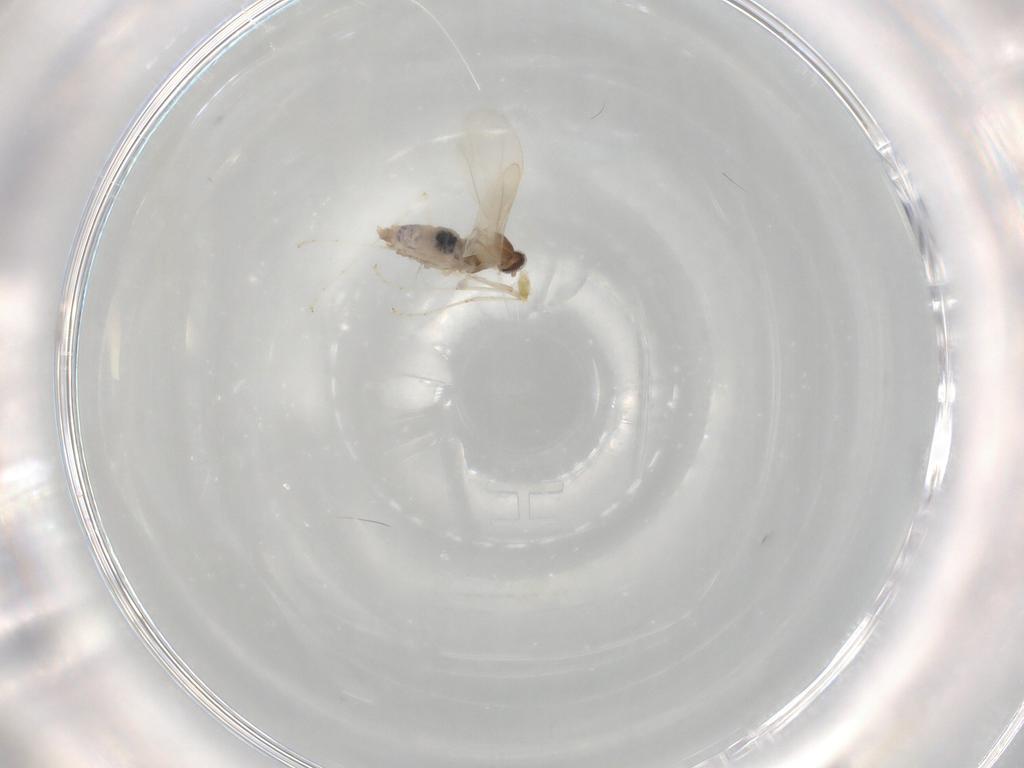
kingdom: Animalia
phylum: Arthropoda
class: Insecta
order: Diptera
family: Cecidomyiidae
